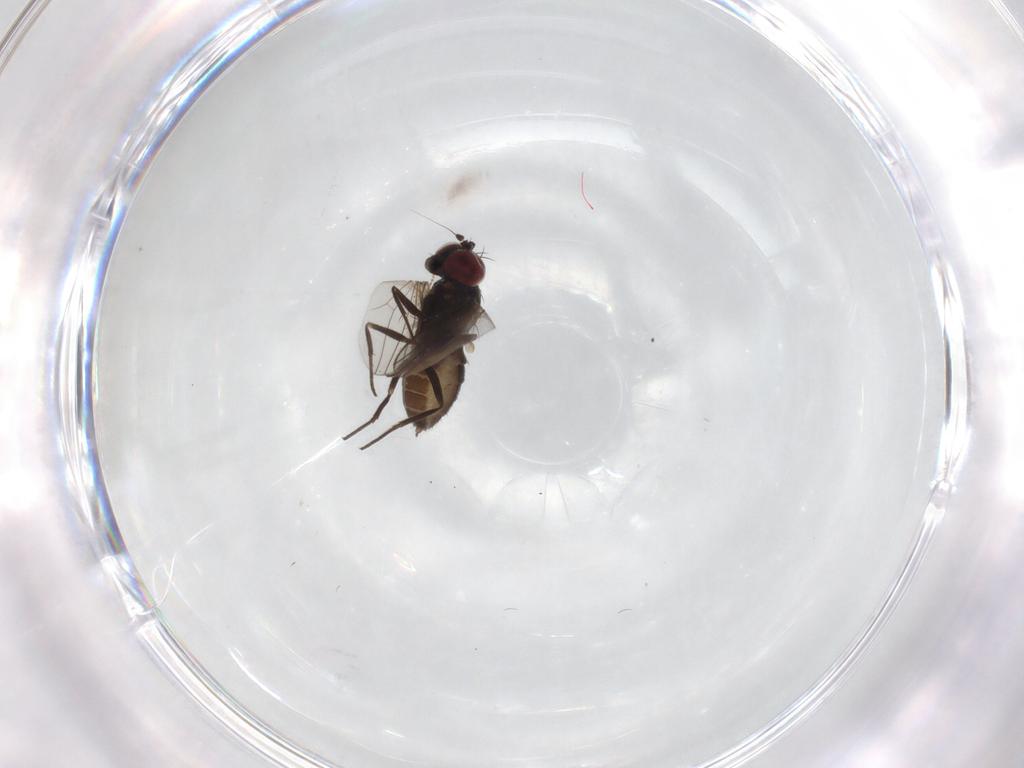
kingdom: Animalia
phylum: Arthropoda
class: Insecta
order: Diptera
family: Dolichopodidae
